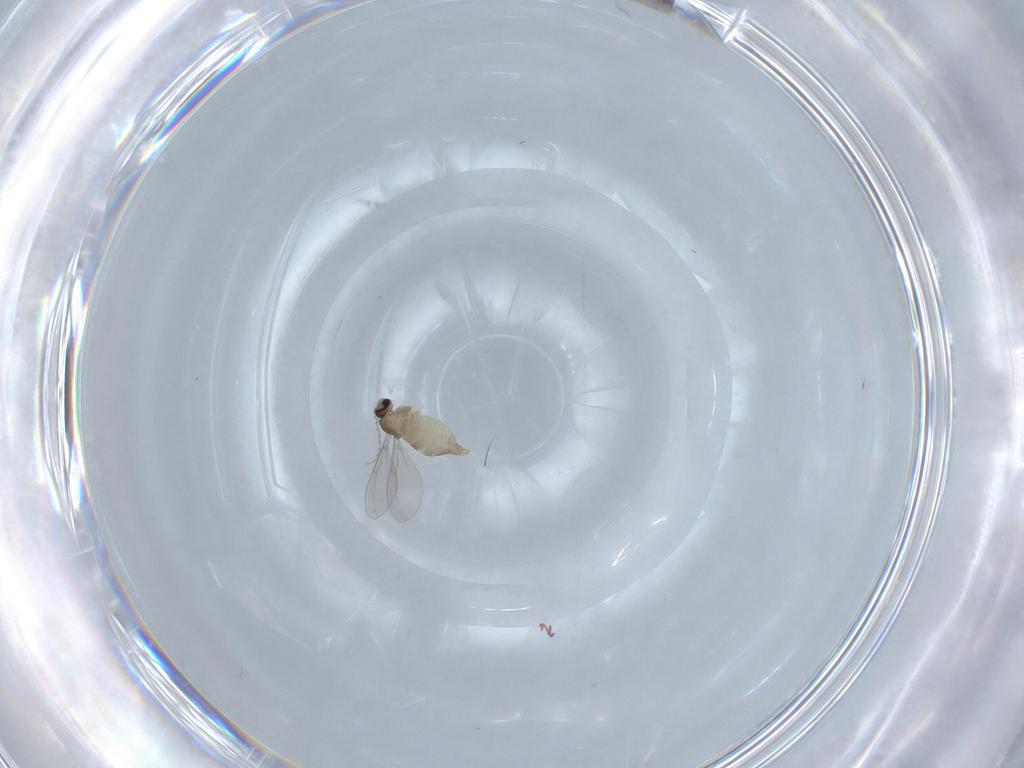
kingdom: Animalia
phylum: Arthropoda
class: Insecta
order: Diptera
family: Cecidomyiidae
